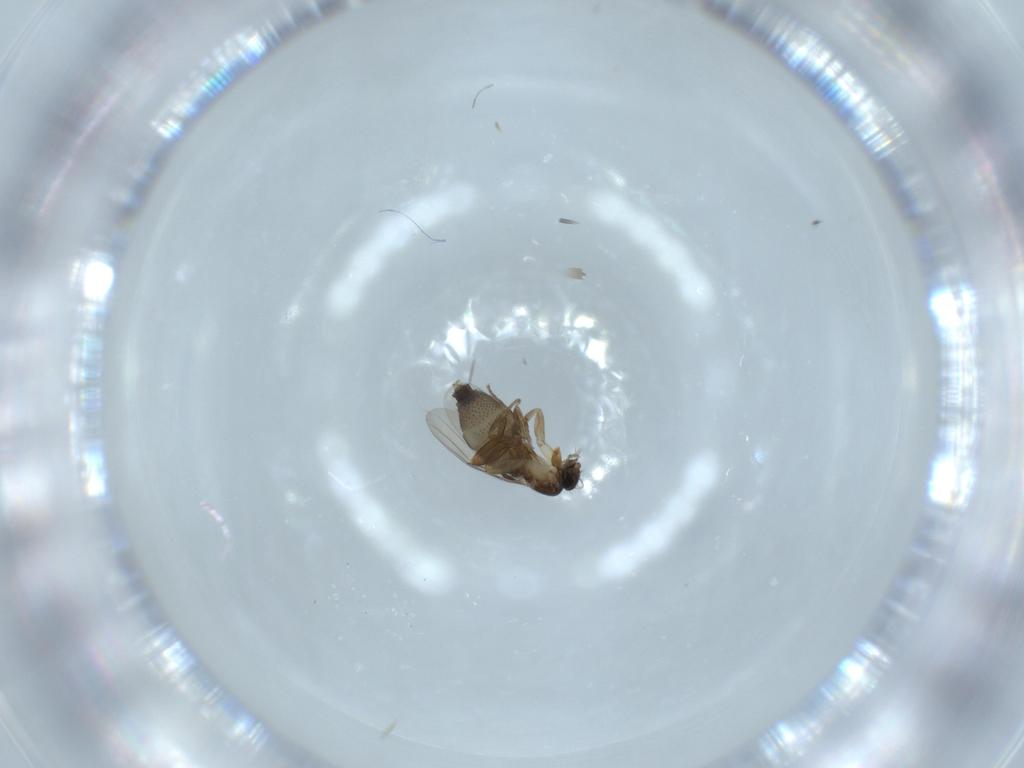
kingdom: Animalia
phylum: Arthropoda
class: Insecta
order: Diptera
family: Phoridae
